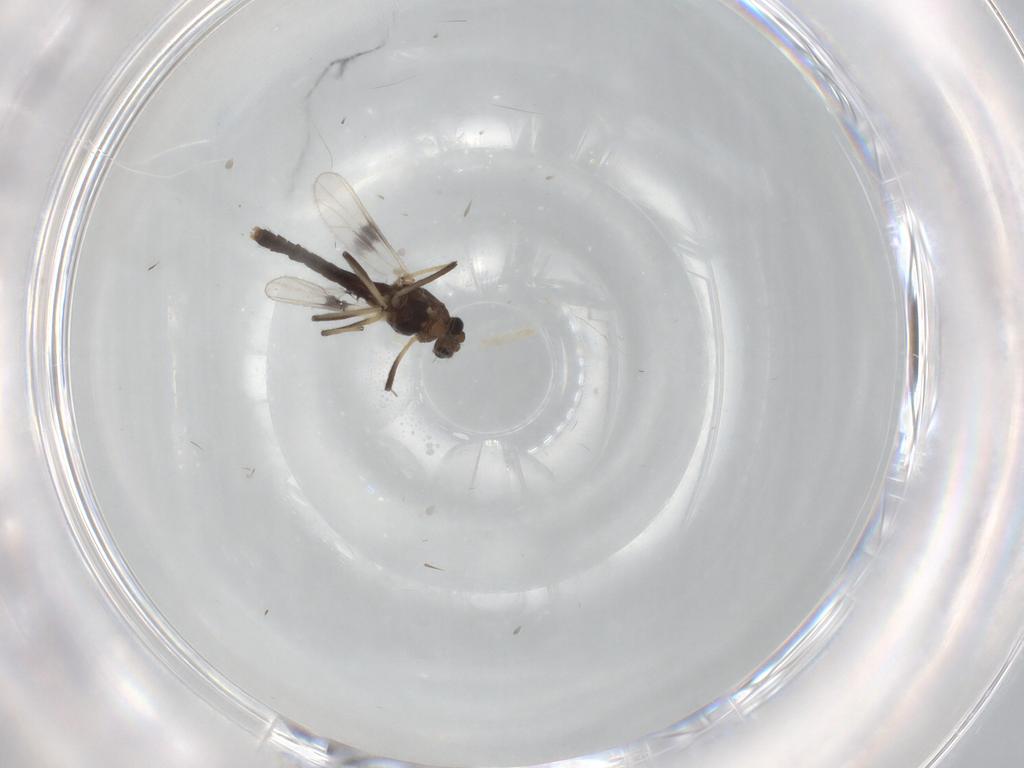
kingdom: Animalia
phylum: Arthropoda
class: Insecta
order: Diptera
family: Chironomidae
